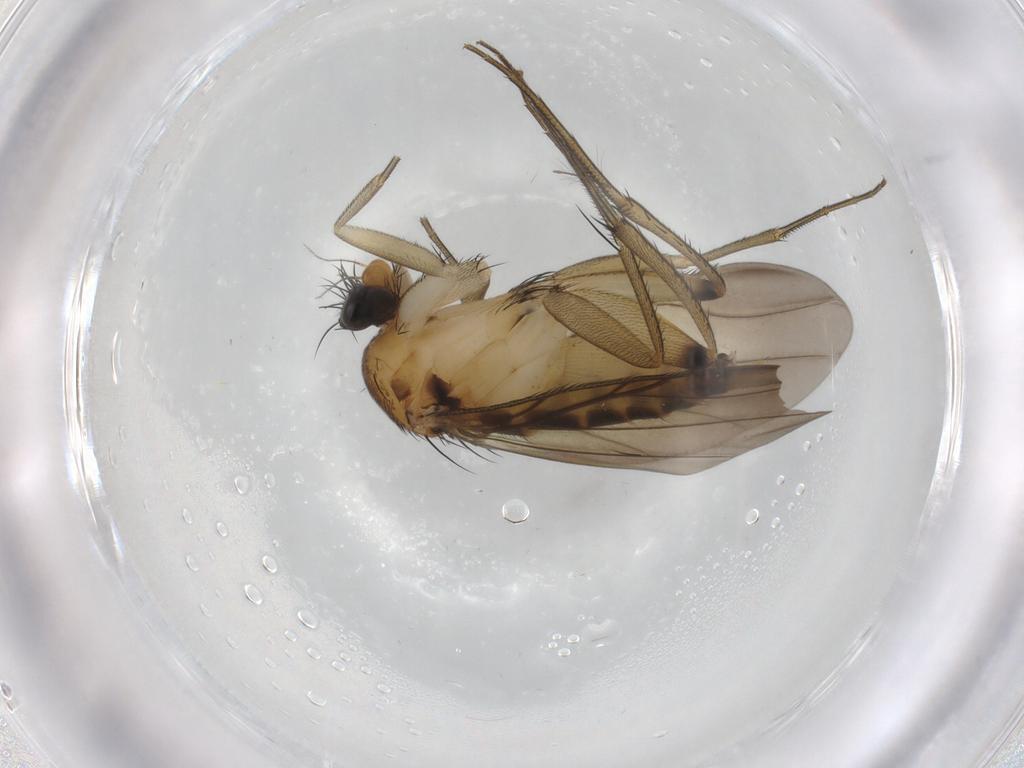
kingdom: Animalia
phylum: Arthropoda
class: Insecta
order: Diptera
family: Phoridae
